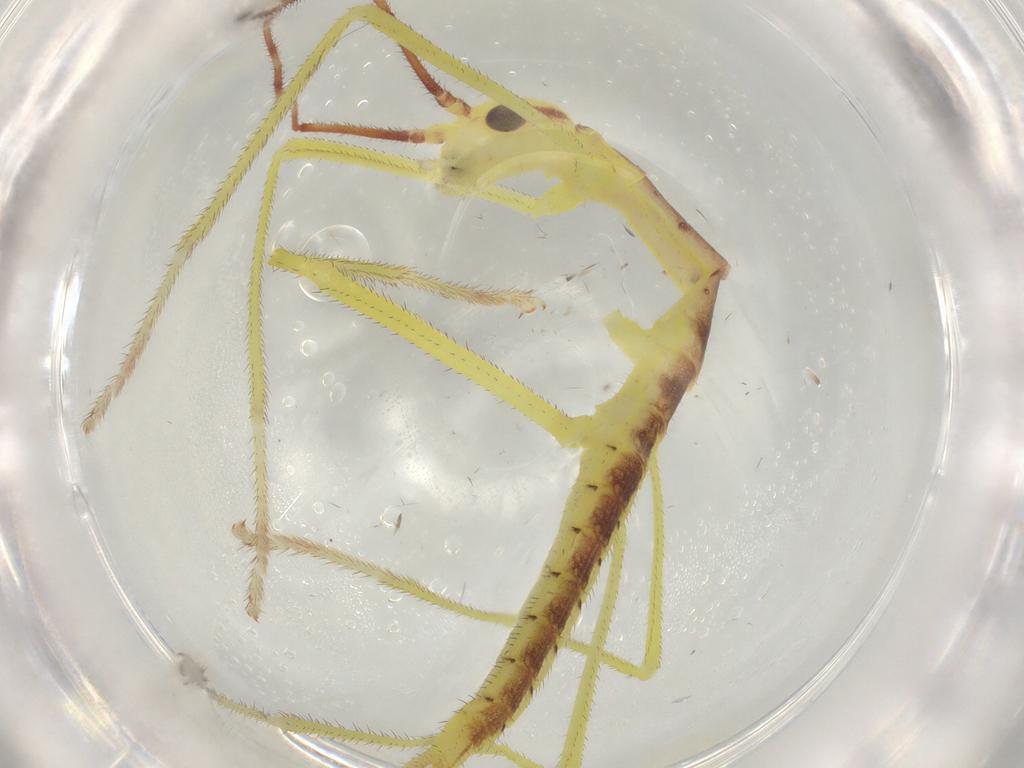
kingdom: Animalia
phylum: Arthropoda
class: Insecta
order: Phasmida
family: Agathemeridae
